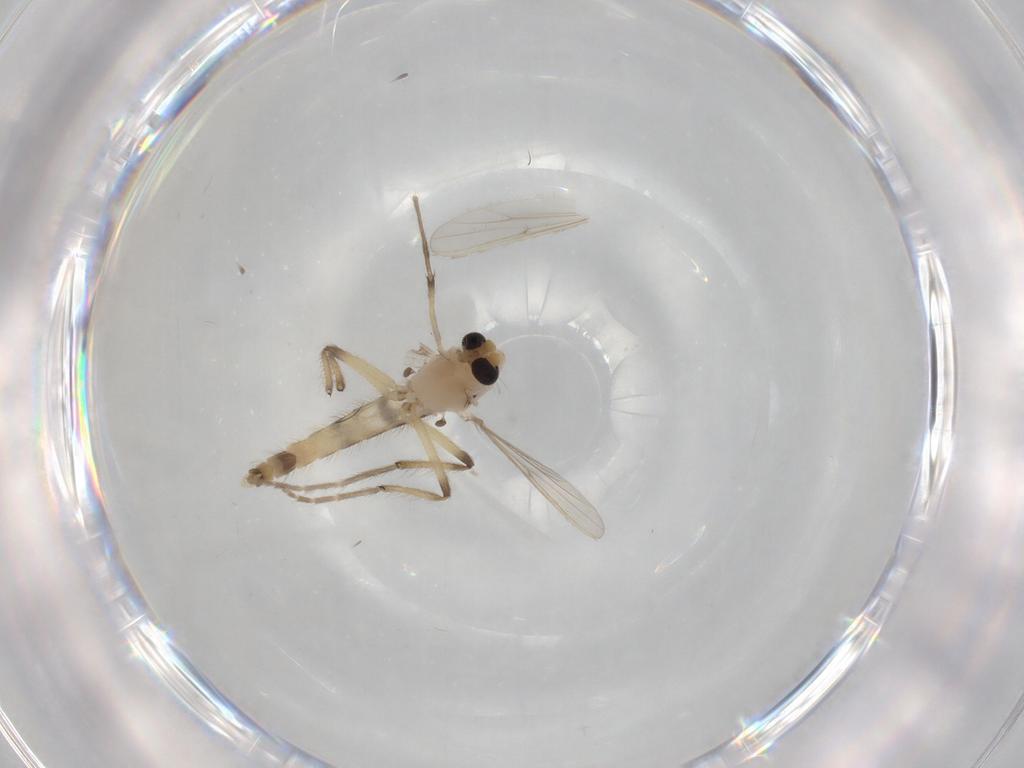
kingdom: Animalia
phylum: Arthropoda
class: Insecta
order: Diptera
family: Chironomidae
